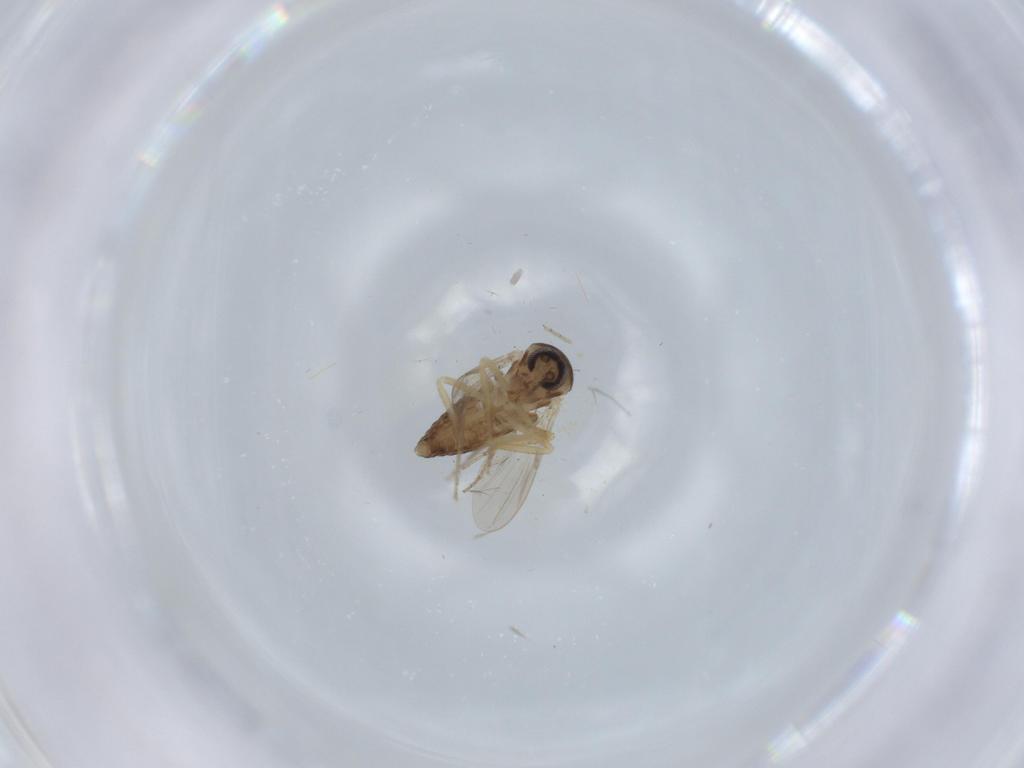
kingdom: Animalia
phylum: Arthropoda
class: Insecta
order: Diptera
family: Ceratopogonidae
